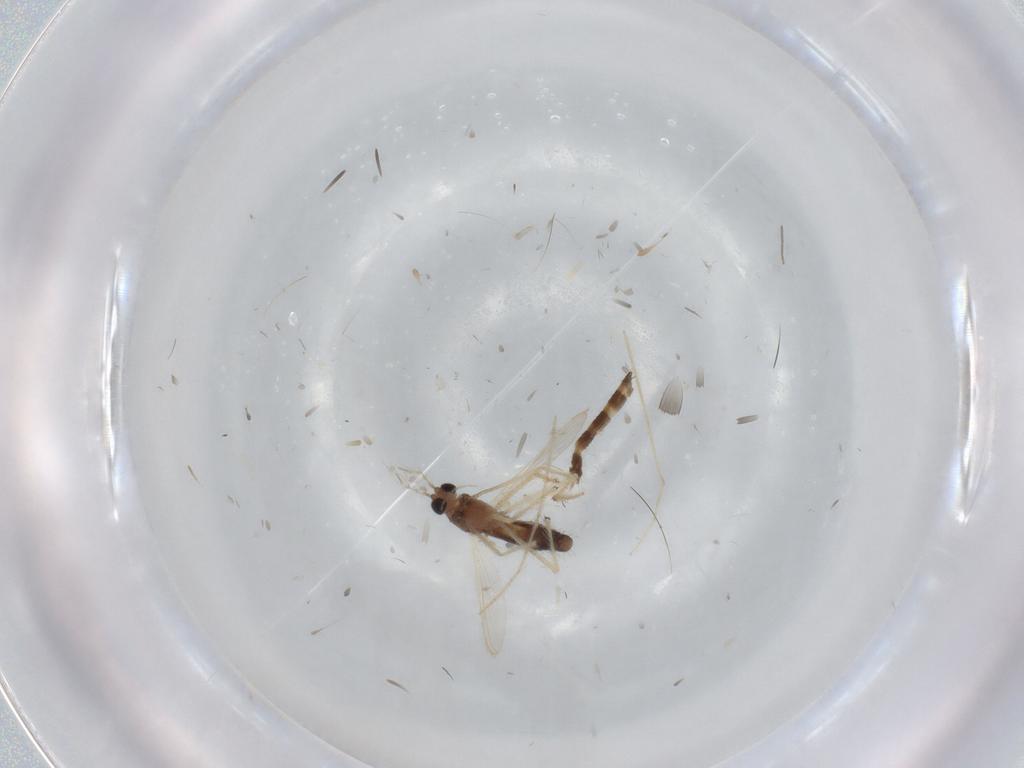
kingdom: Animalia
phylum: Arthropoda
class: Insecta
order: Diptera
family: Chironomidae
